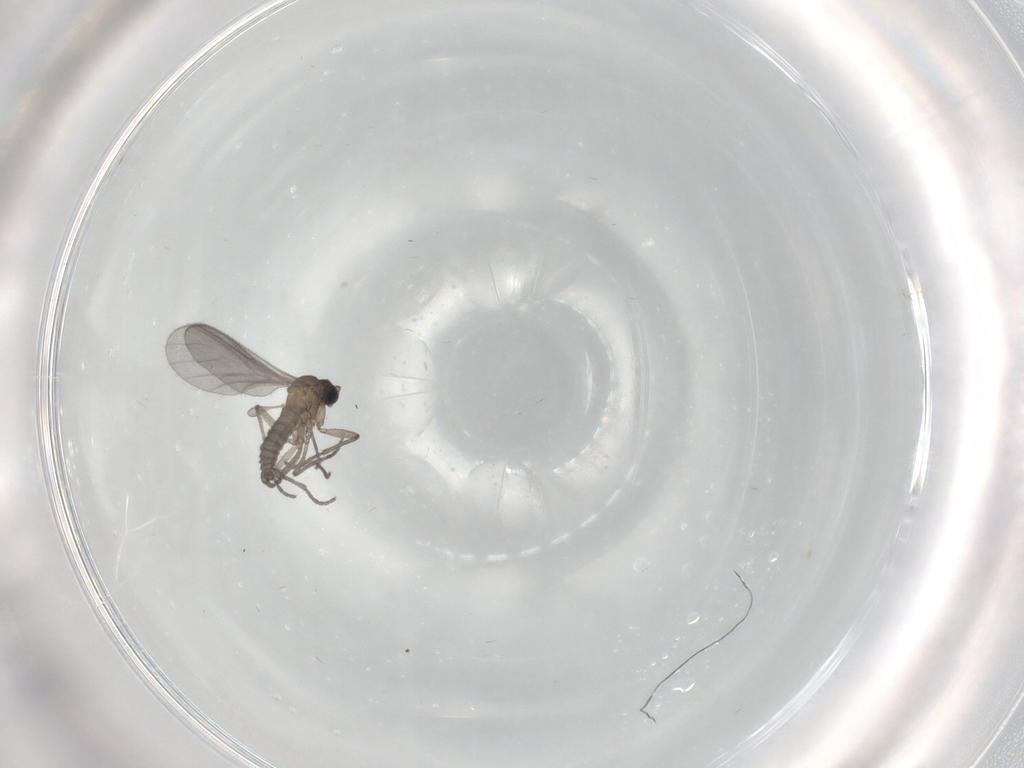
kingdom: Animalia
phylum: Arthropoda
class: Insecta
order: Diptera
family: Sciaridae
